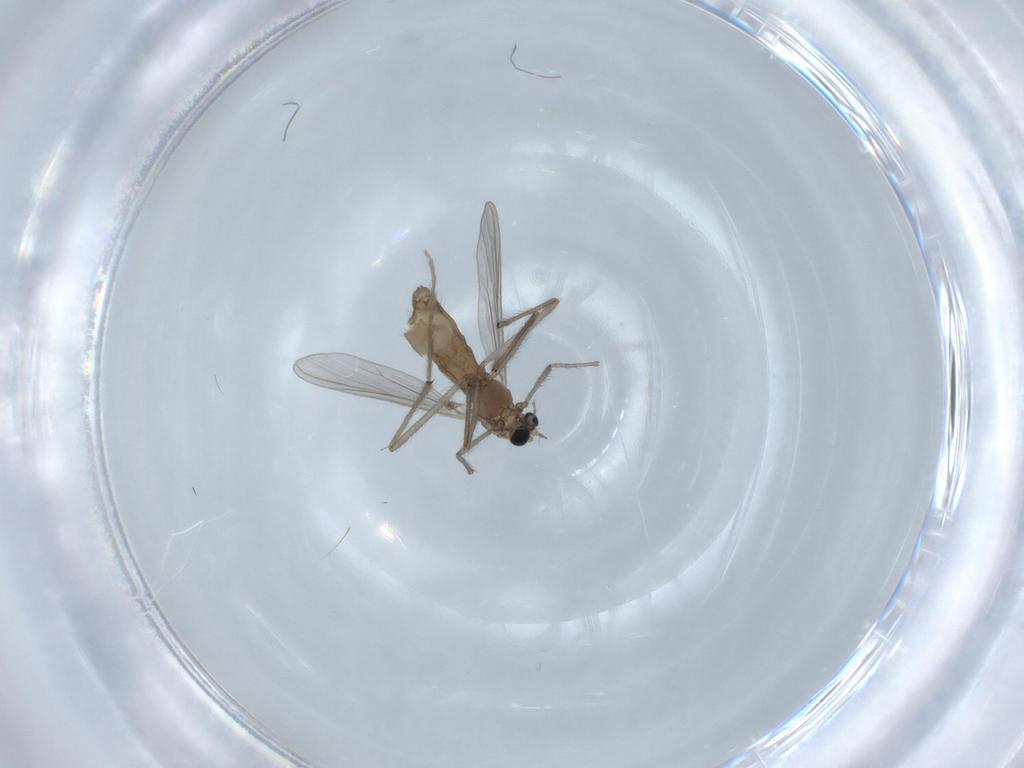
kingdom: Animalia
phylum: Arthropoda
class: Insecta
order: Diptera
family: Chironomidae
